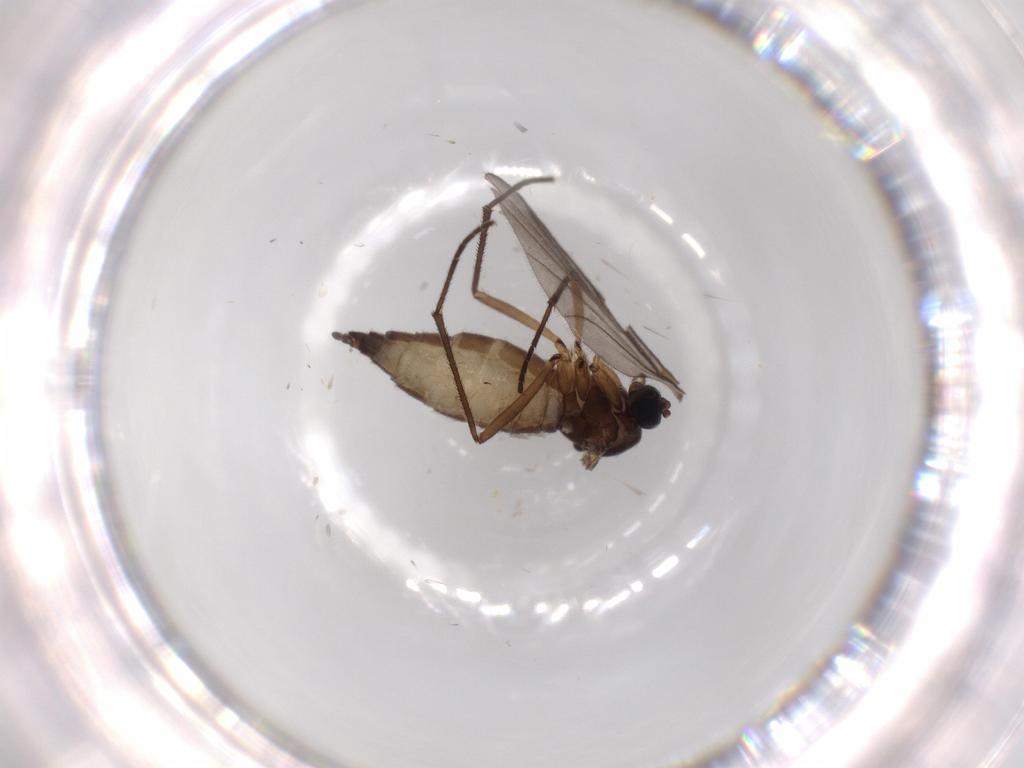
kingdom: Animalia
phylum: Arthropoda
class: Insecta
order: Diptera
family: Sciaridae
